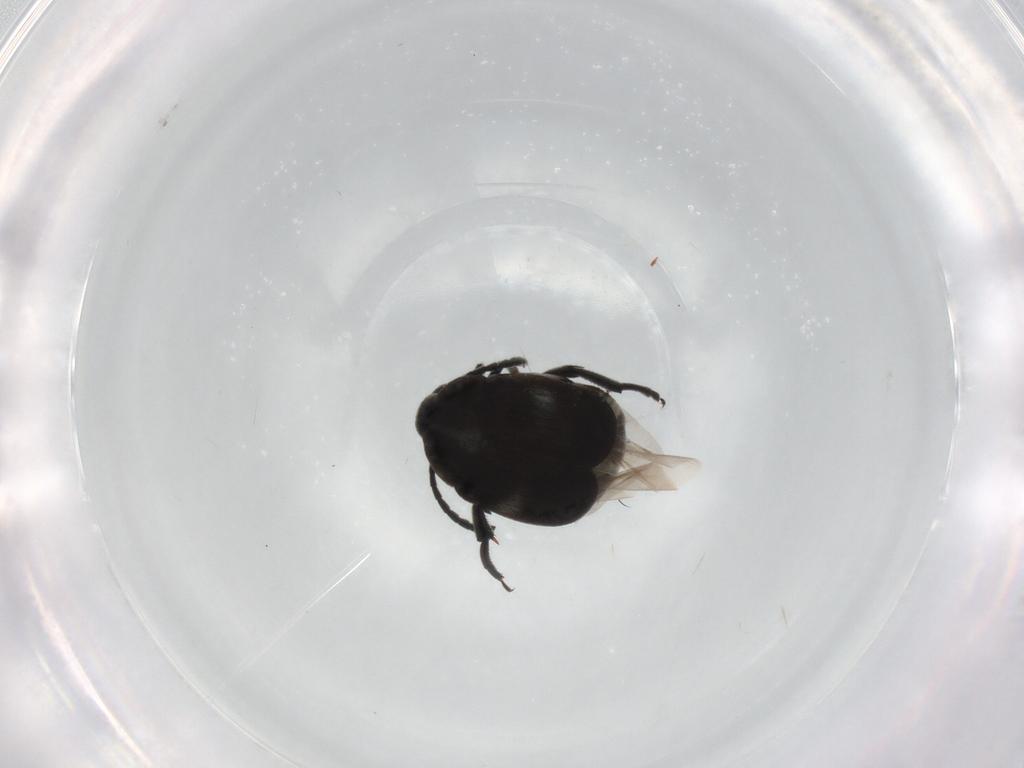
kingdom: Animalia
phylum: Arthropoda
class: Insecta
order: Coleoptera
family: Chrysomelidae
